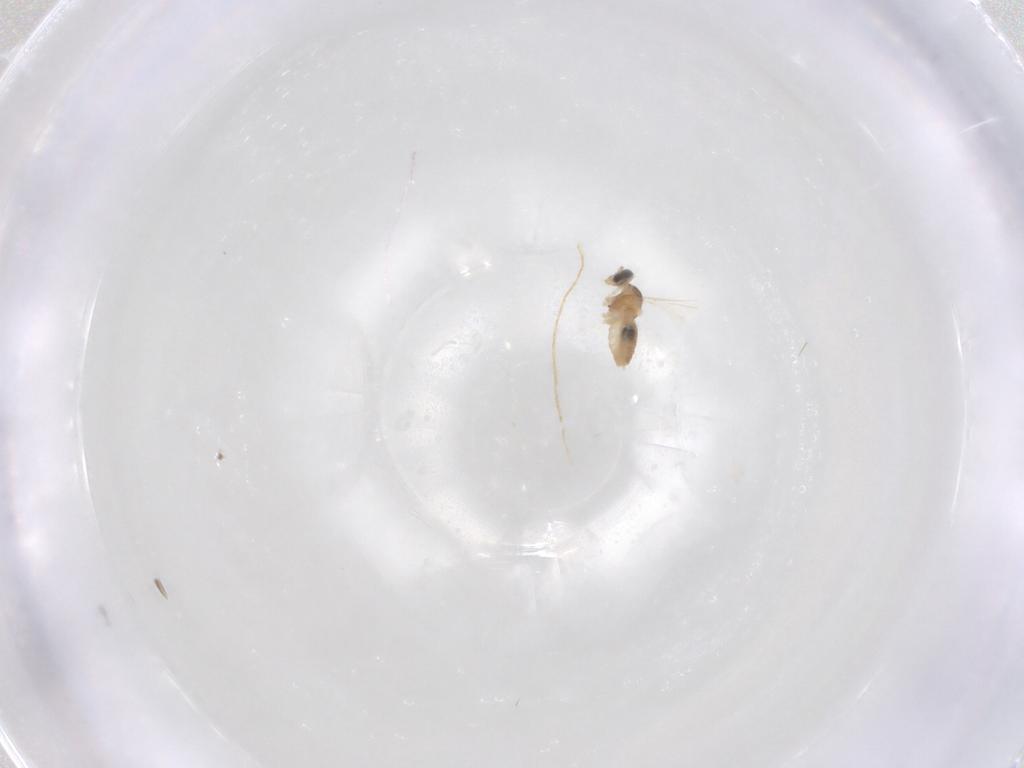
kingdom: Animalia
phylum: Arthropoda
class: Insecta
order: Diptera
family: Cecidomyiidae
